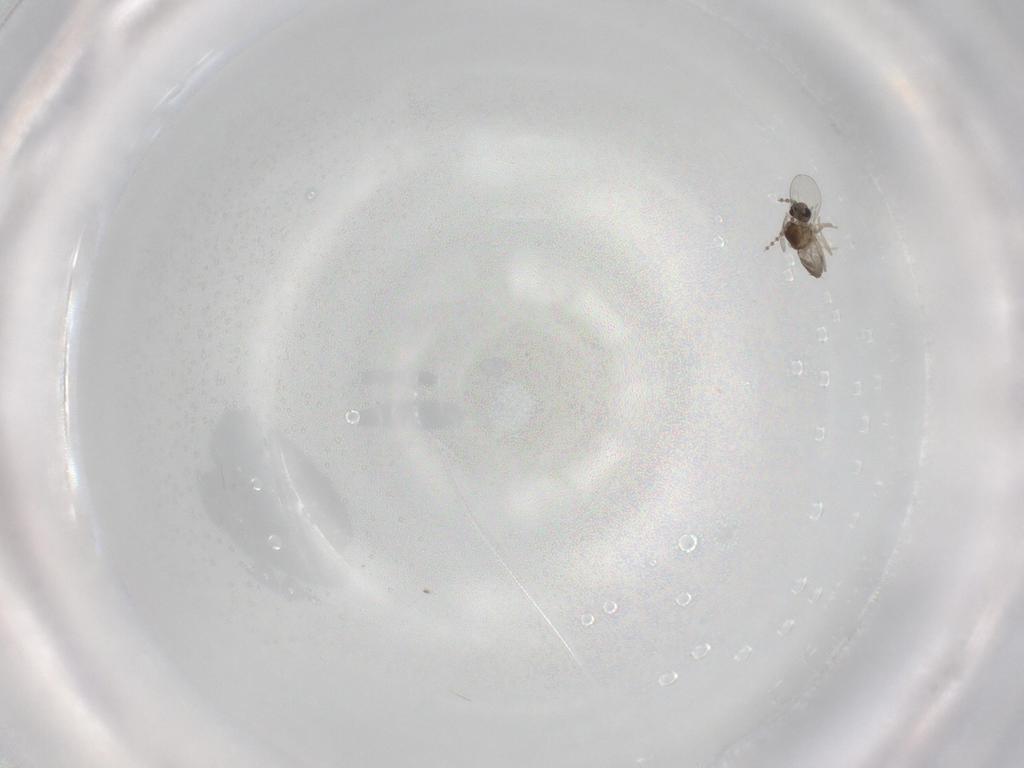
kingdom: Animalia
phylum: Arthropoda
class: Insecta
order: Diptera
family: Cecidomyiidae
